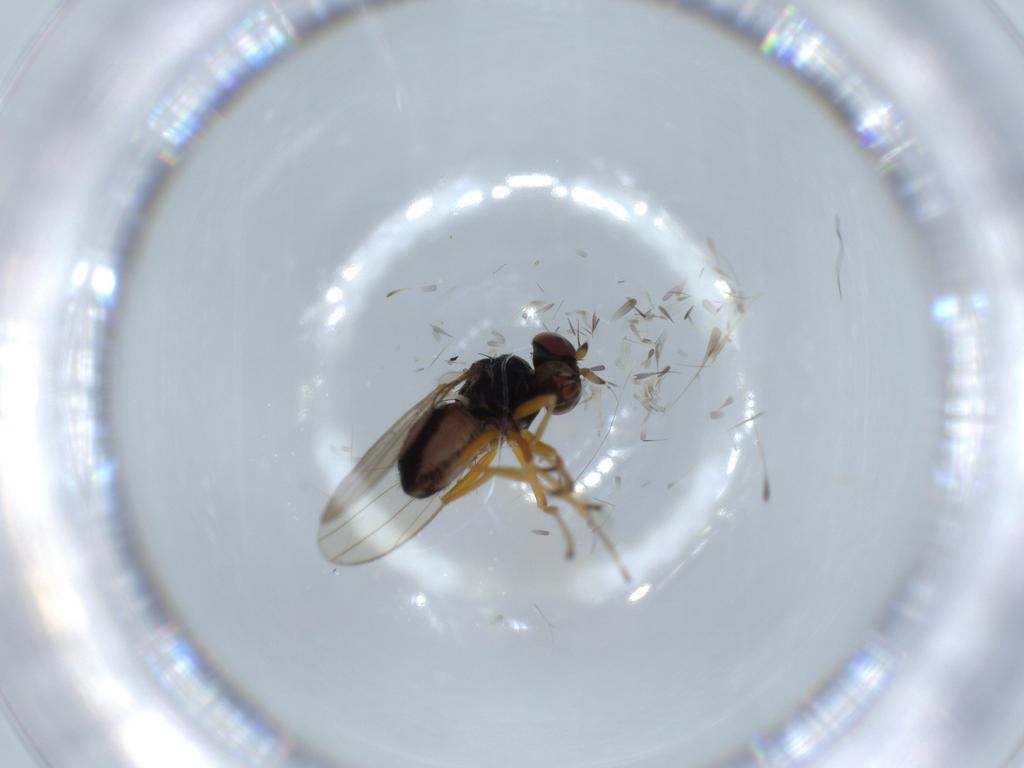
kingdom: Animalia
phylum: Arthropoda
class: Insecta
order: Diptera
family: Ephydridae
